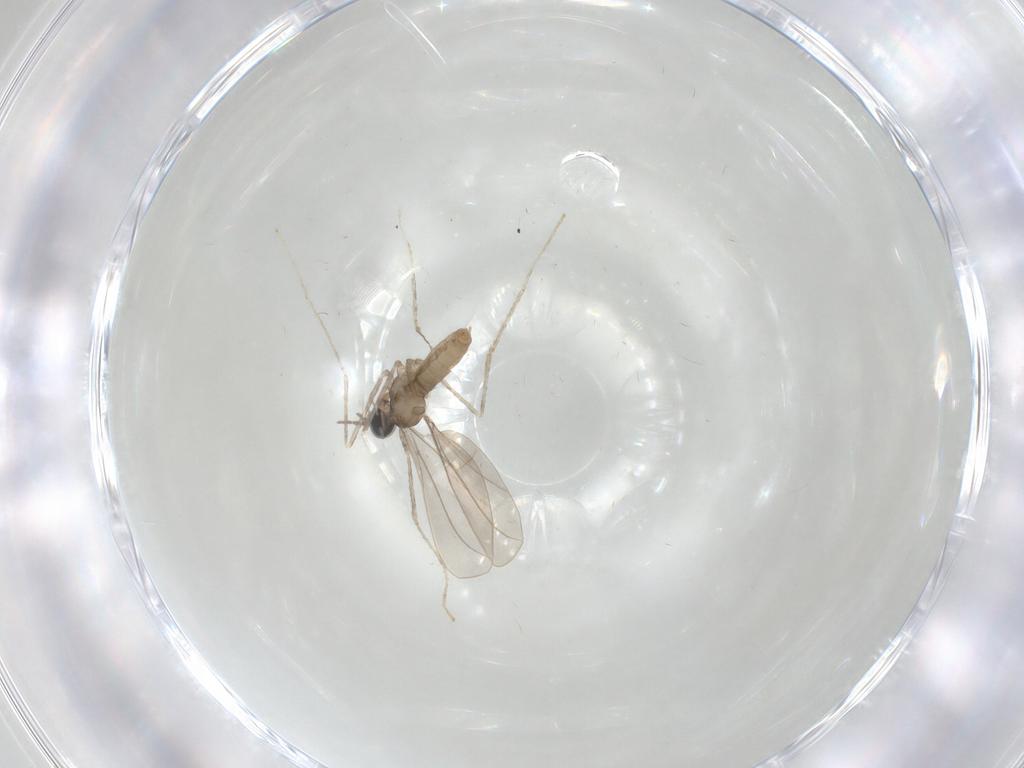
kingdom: Animalia
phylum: Arthropoda
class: Insecta
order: Diptera
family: Cecidomyiidae
